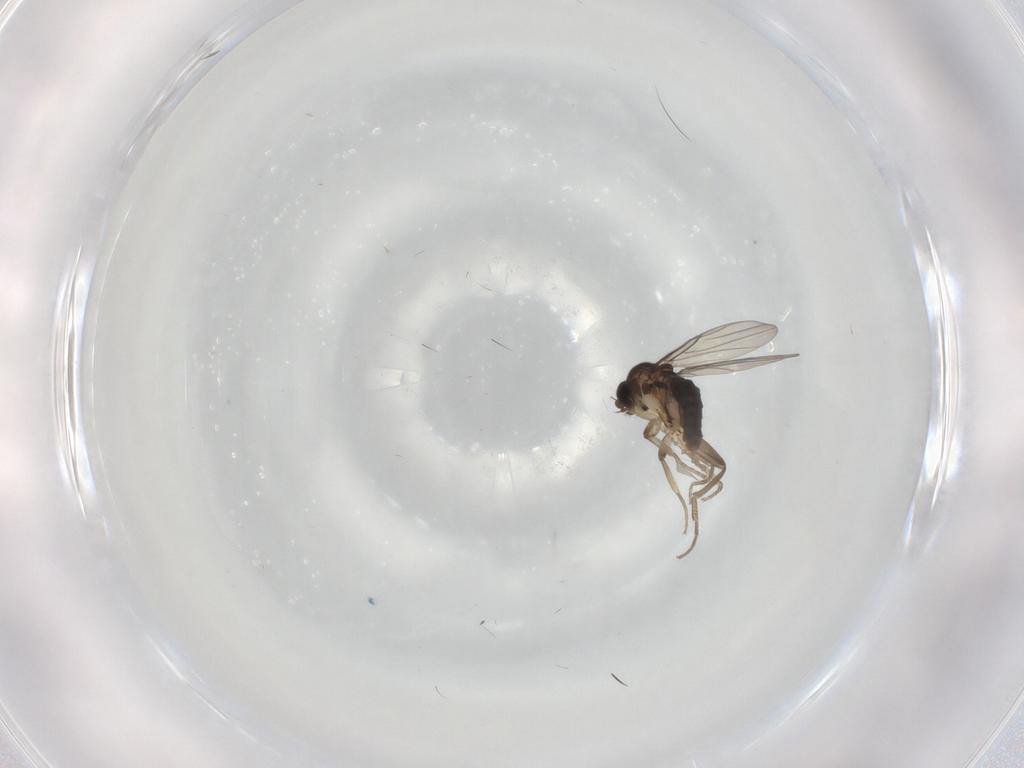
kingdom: Animalia
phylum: Arthropoda
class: Insecta
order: Diptera
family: Cecidomyiidae
